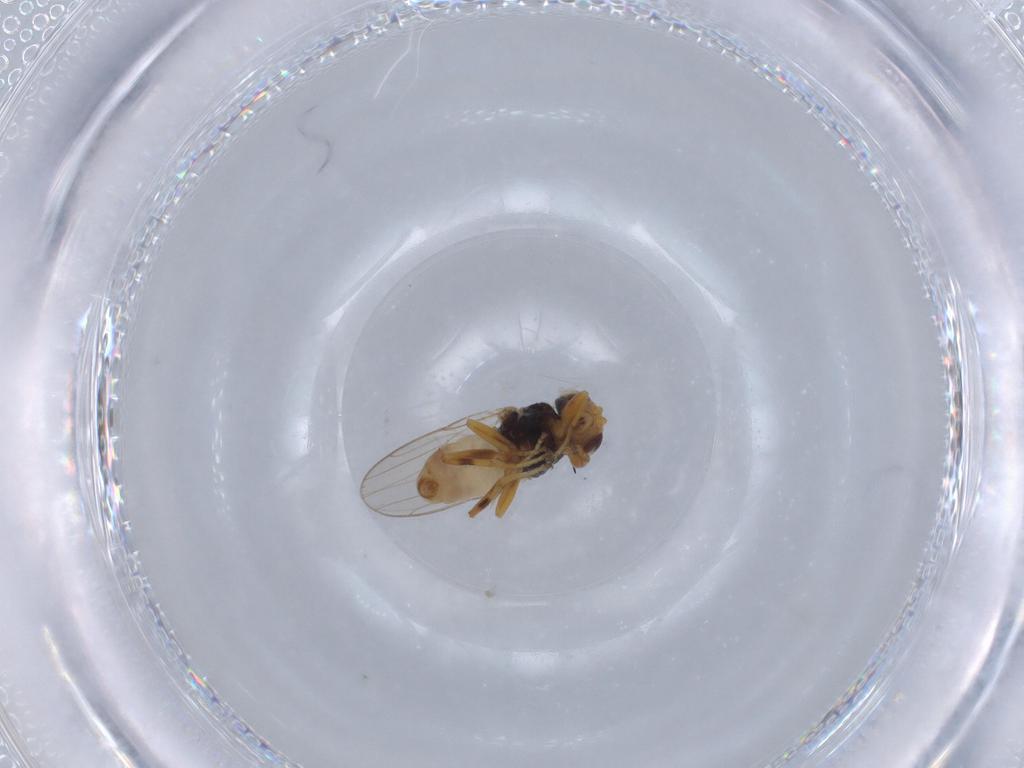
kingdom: Animalia
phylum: Arthropoda
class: Insecta
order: Diptera
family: Chloropidae
